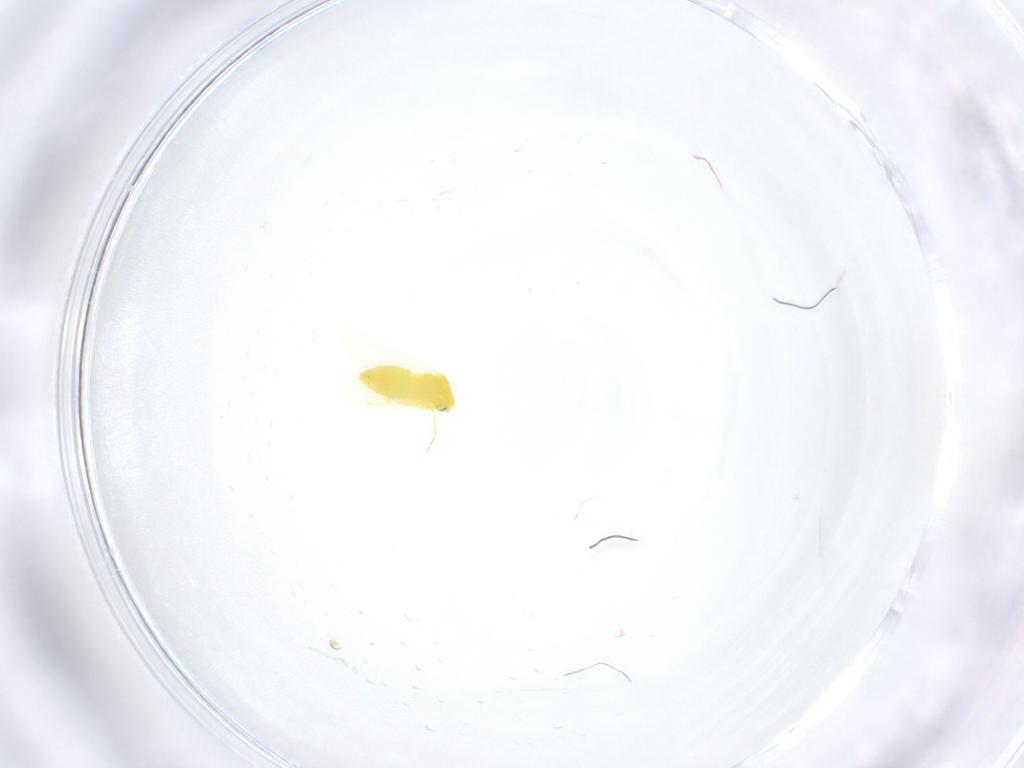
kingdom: Animalia
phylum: Arthropoda
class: Insecta
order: Hemiptera
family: Aleyrodidae
